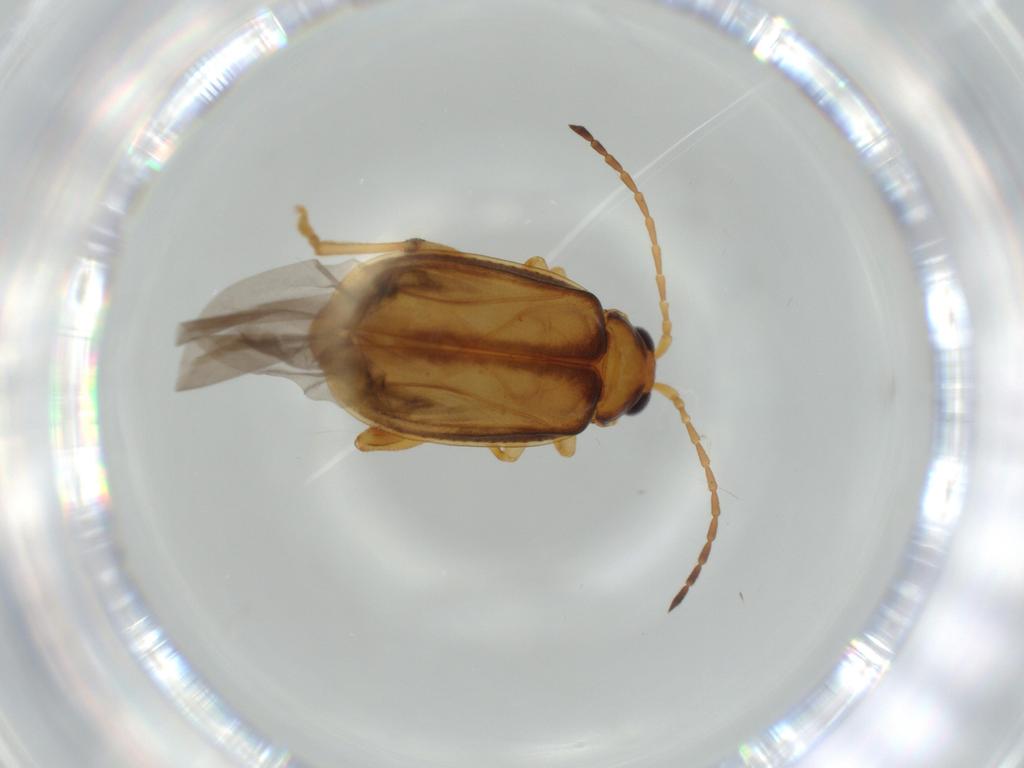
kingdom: Animalia
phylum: Arthropoda
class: Insecta
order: Coleoptera
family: Chrysomelidae
